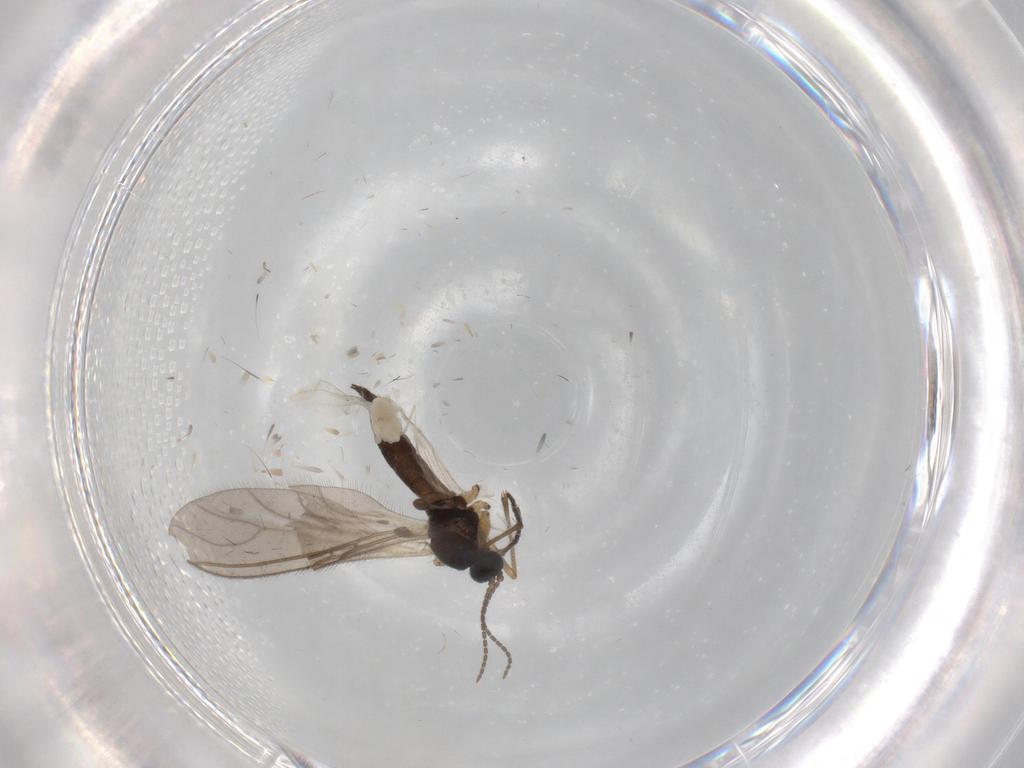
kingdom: Animalia
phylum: Arthropoda
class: Insecta
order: Diptera
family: Sciaridae
